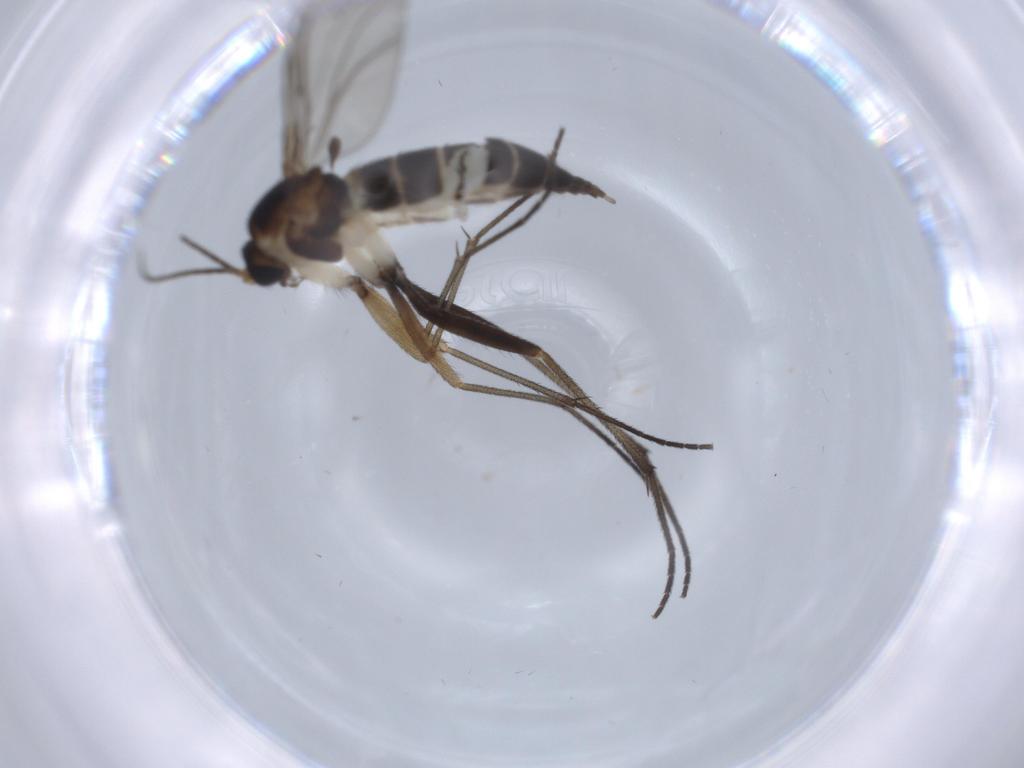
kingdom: Animalia
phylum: Arthropoda
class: Insecta
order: Diptera
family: Sciaridae
